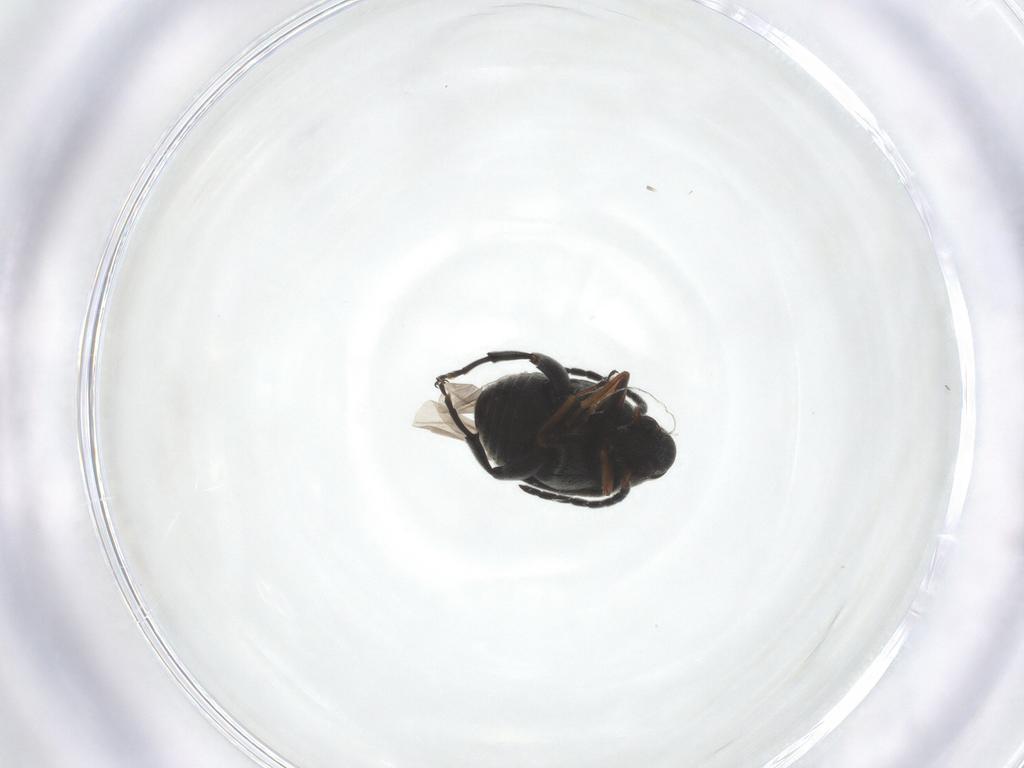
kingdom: Animalia
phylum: Arthropoda
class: Insecta
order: Coleoptera
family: Chrysomelidae
